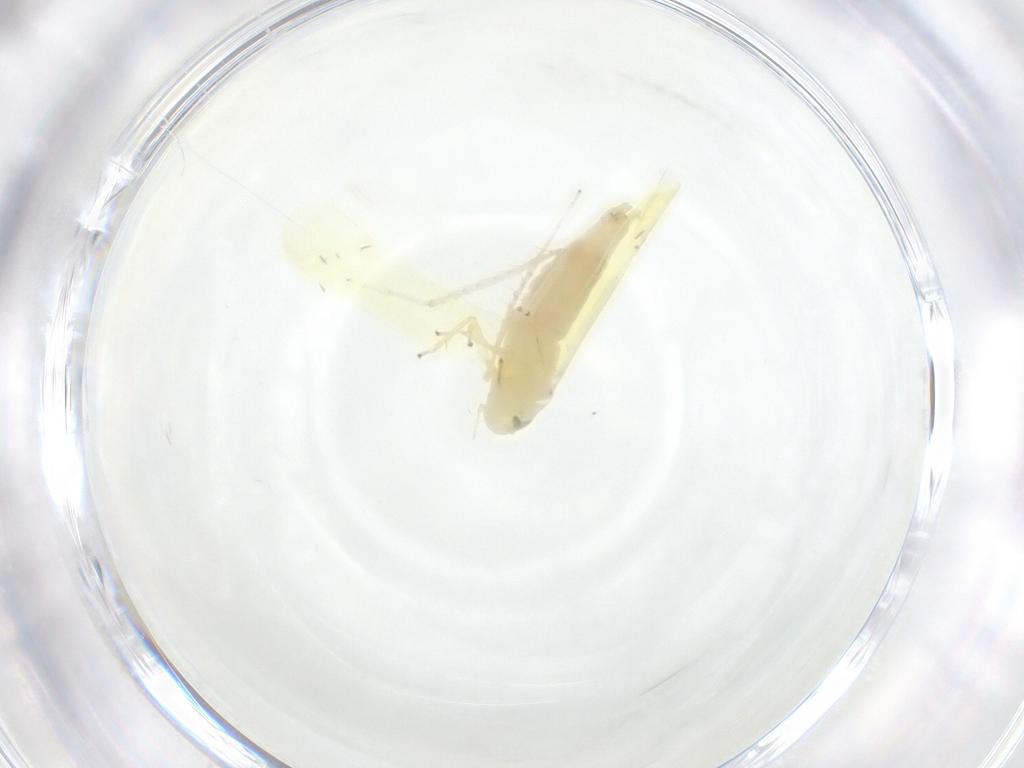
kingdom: Animalia
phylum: Arthropoda
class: Insecta
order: Hemiptera
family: Cicadellidae
